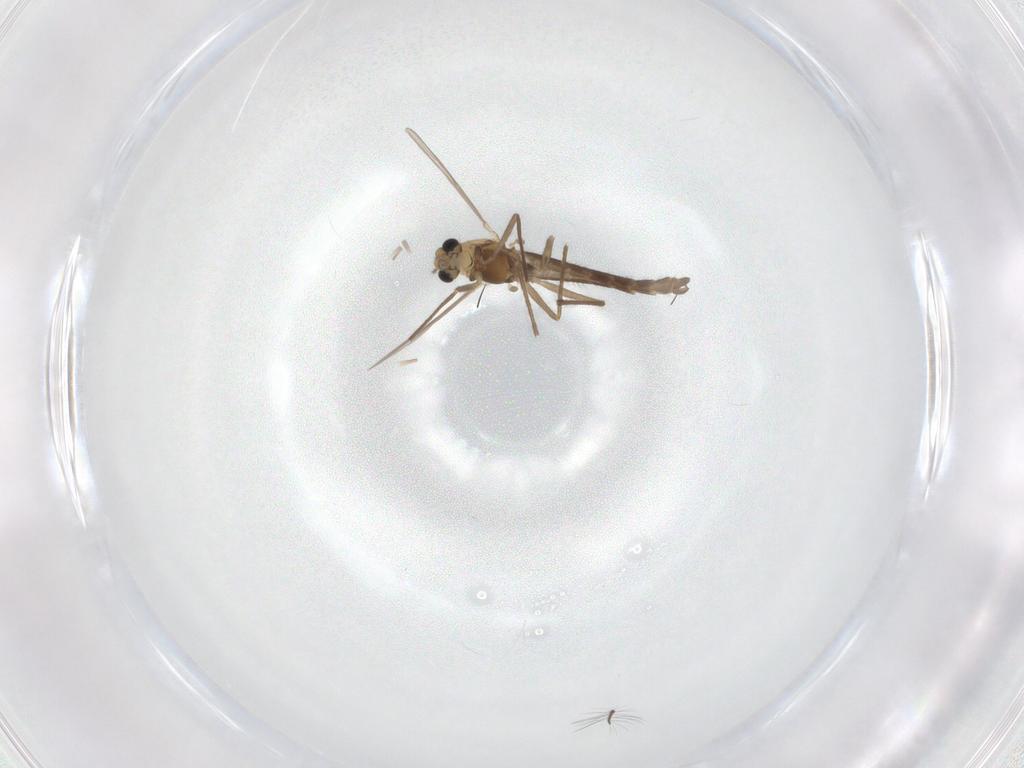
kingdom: Animalia
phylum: Arthropoda
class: Insecta
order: Diptera
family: Chironomidae
